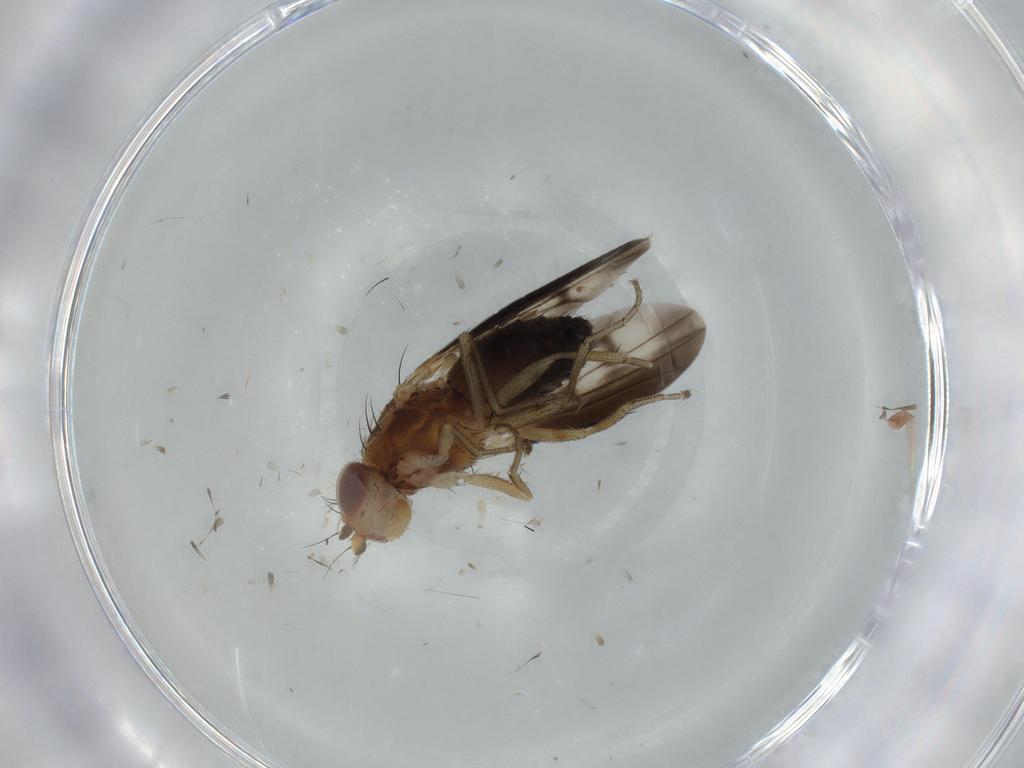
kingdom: Animalia
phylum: Arthropoda
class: Insecta
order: Diptera
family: Heleomyzidae
